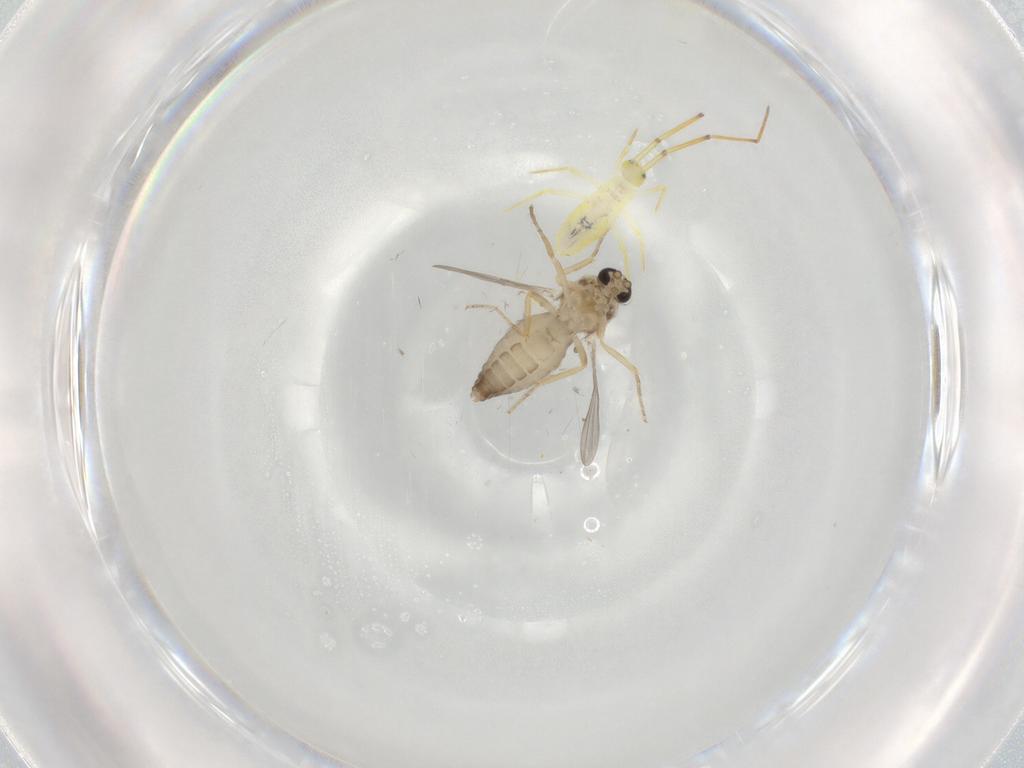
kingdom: Animalia
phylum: Arthropoda
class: Insecta
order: Diptera
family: Ceratopogonidae
